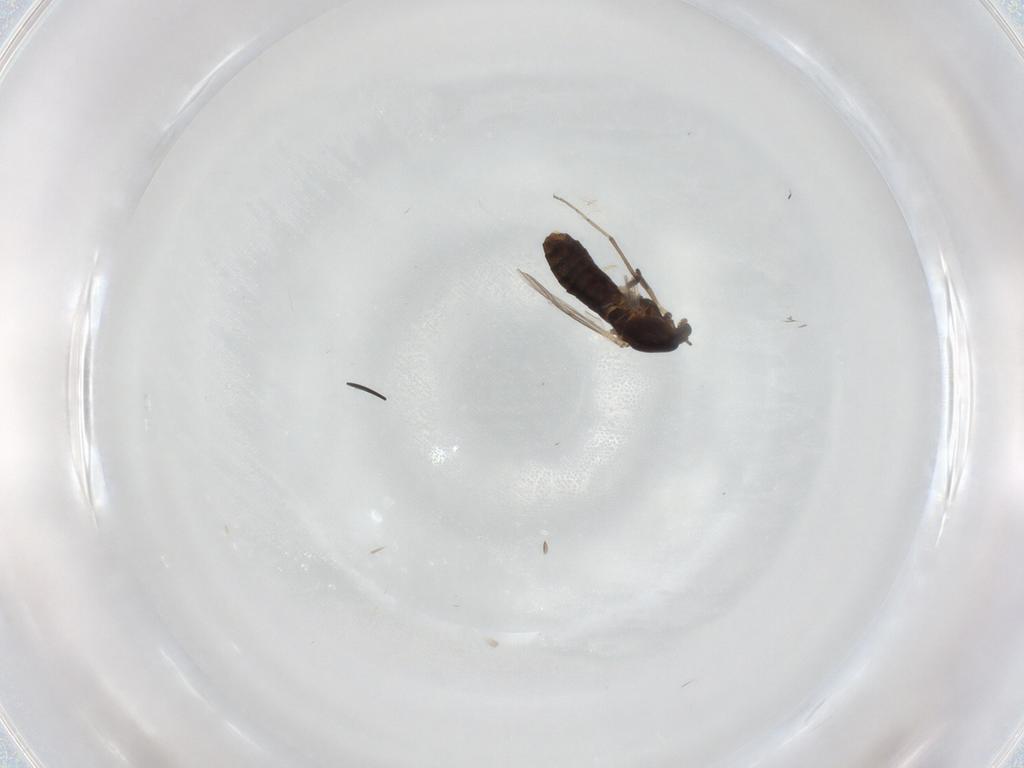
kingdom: Animalia
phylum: Arthropoda
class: Insecta
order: Diptera
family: Chironomidae
